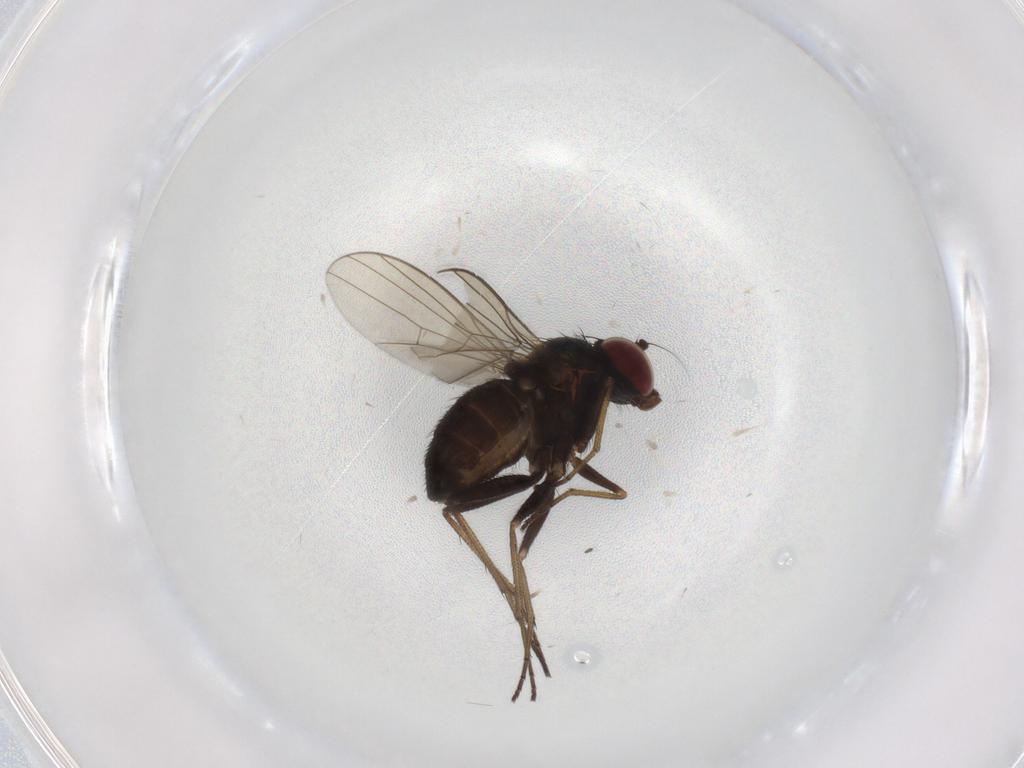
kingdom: Animalia
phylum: Arthropoda
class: Insecta
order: Diptera
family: Dolichopodidae
